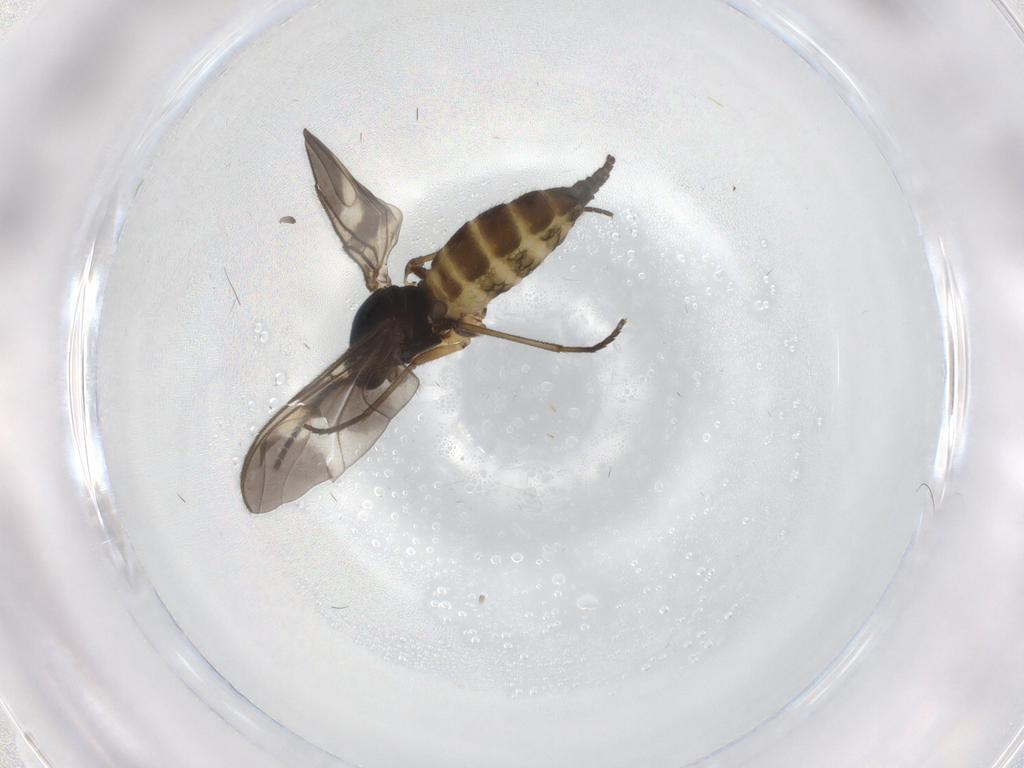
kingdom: Animalia
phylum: Arthropoda
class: Insecta
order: Diptera
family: Sciaridae
